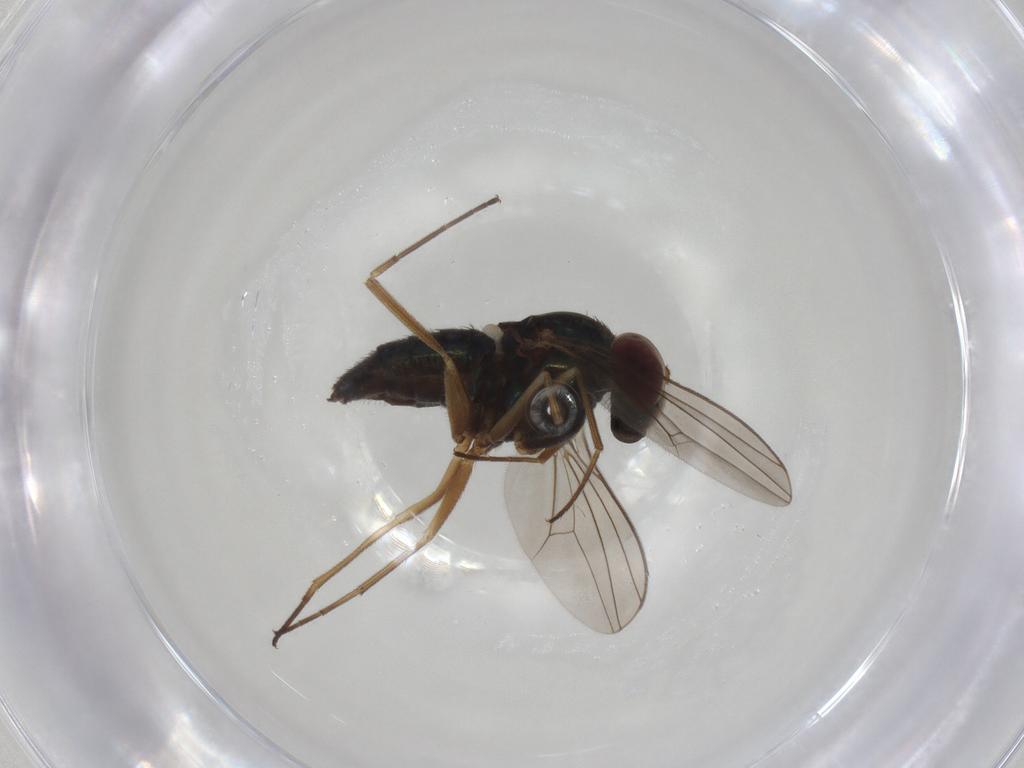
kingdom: Animalia
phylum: Arthropoda
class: Insecta
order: Diptera
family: Dolichopodidae
